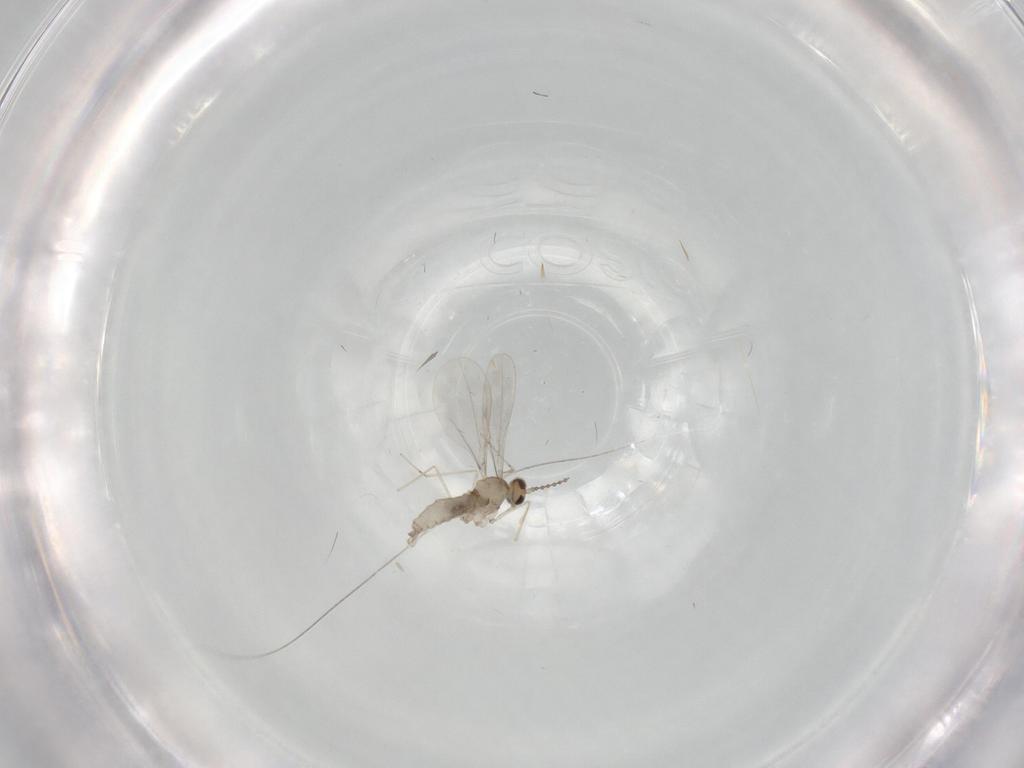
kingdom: Animalia
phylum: Arthropoda
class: Insecta
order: Diptera
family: Cecidomyiidae
